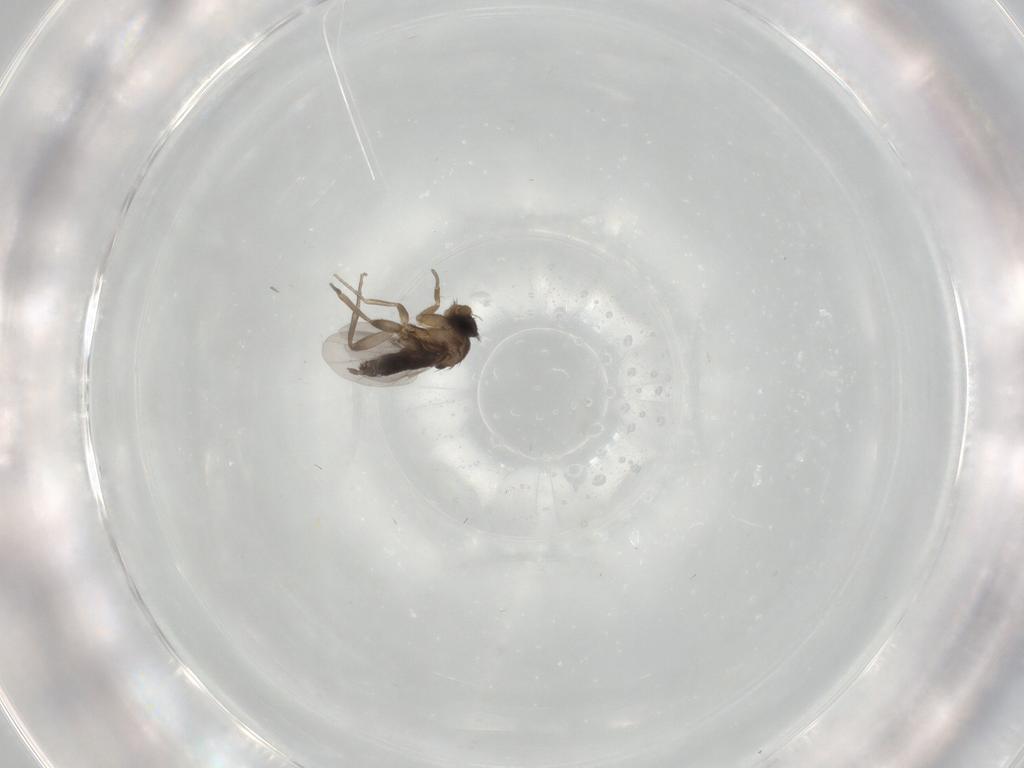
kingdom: Animalia
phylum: Arthropoda
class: Insecta
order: Diptera
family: Phoridae
